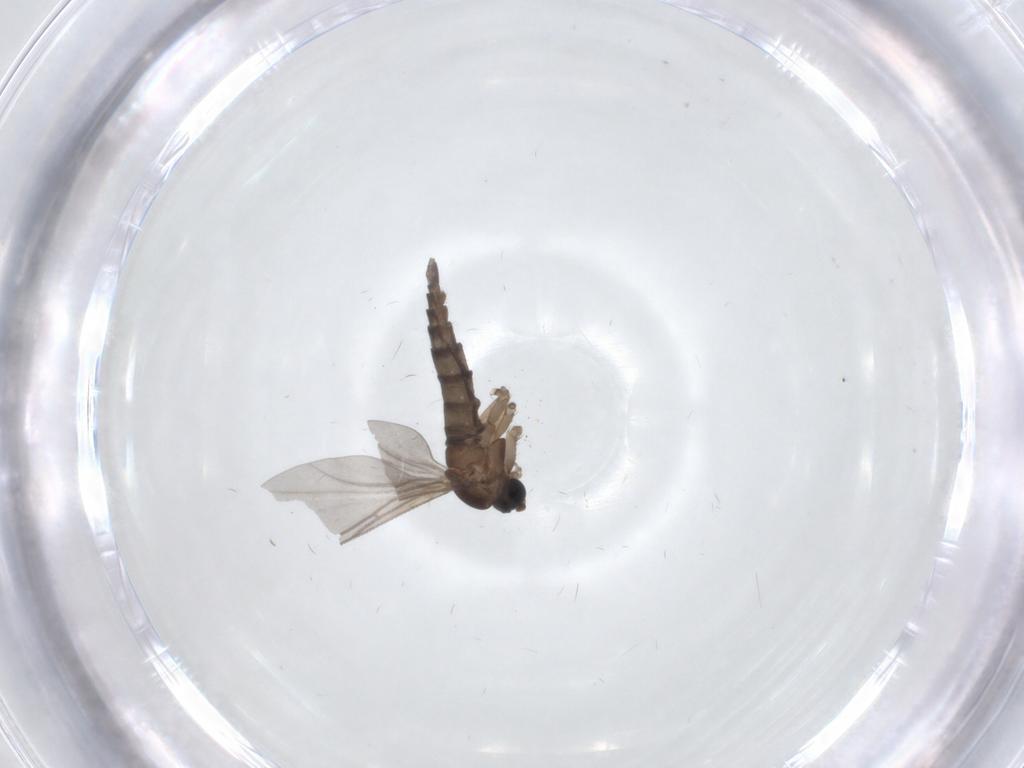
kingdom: Animalia
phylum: Arthropoda
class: Insecta
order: Diptera
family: Sciaridae
